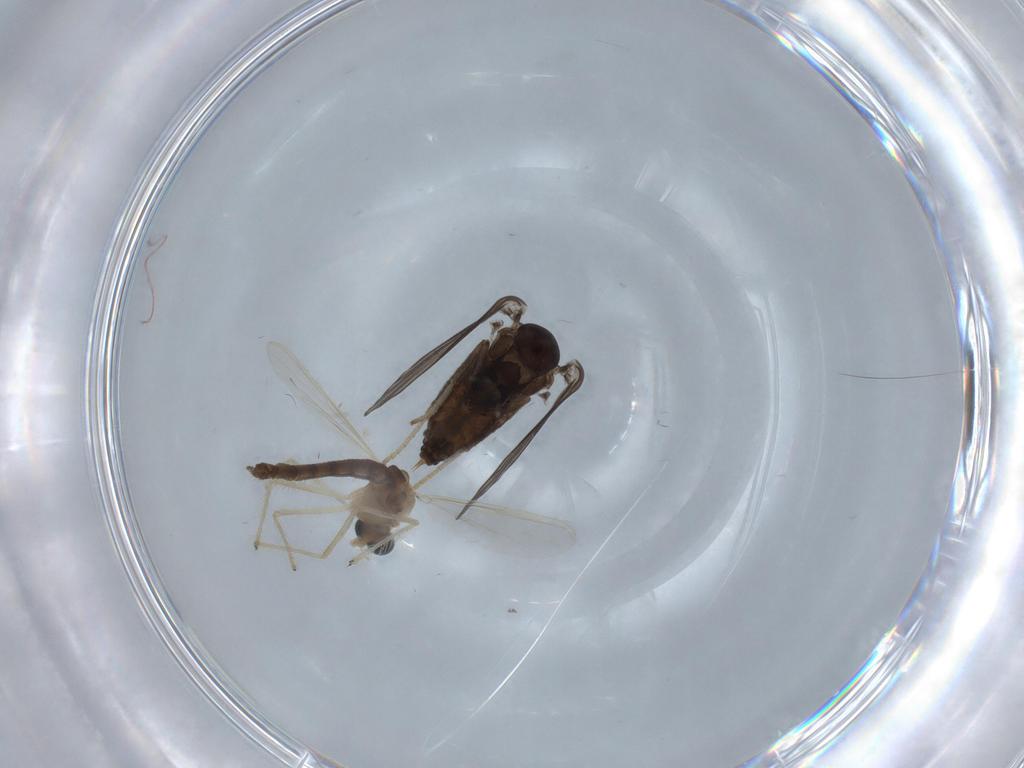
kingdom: Animalia
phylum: Arthropoda
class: Insecta
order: Diptera
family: Psychodidae
